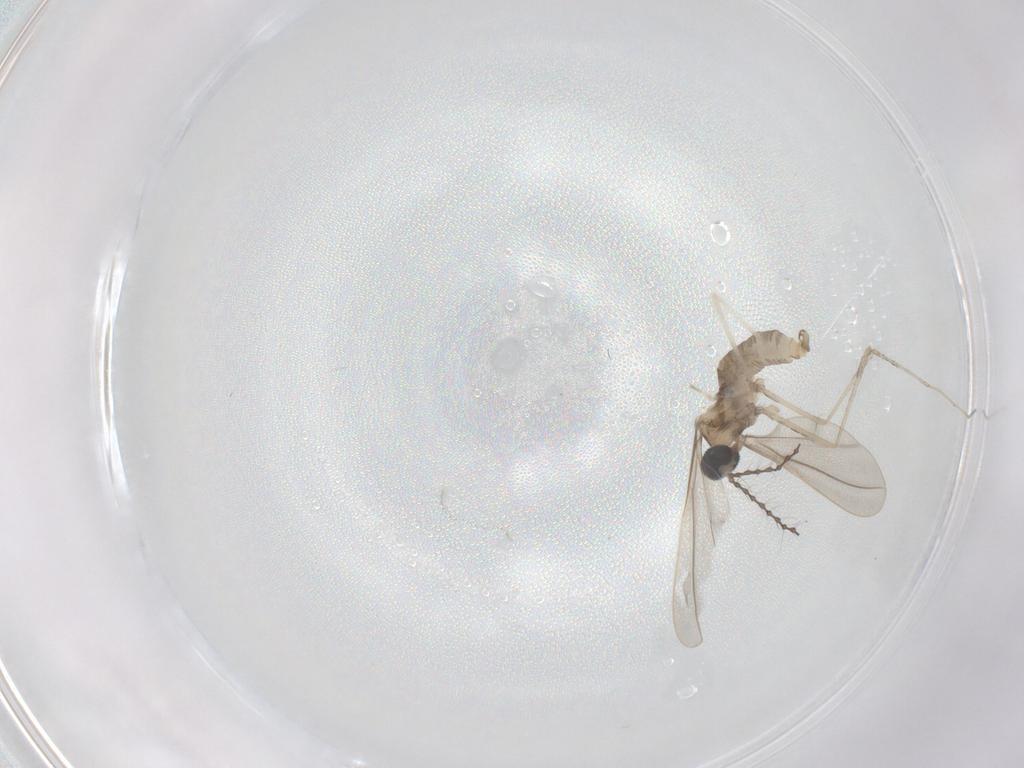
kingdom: Animalia
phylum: Arthropoda
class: Insecta
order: Diptera
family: Cecidomyiidae
